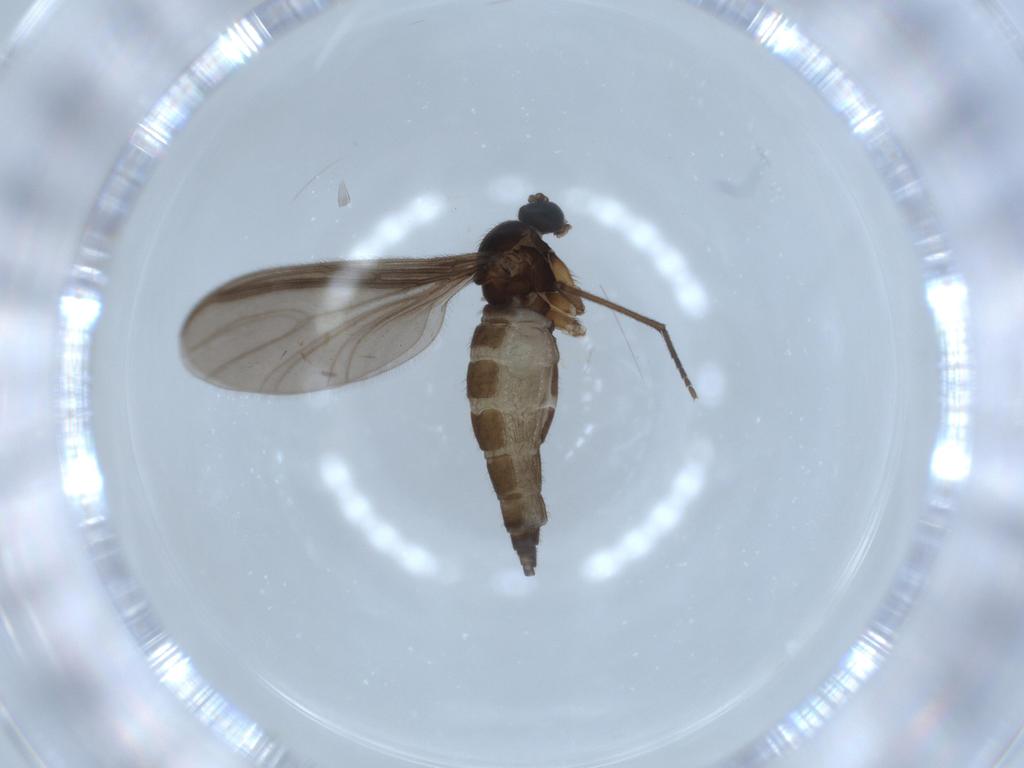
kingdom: Animalia
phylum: Arthropoda
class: Insecta
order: Diptera
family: Sciaridae
